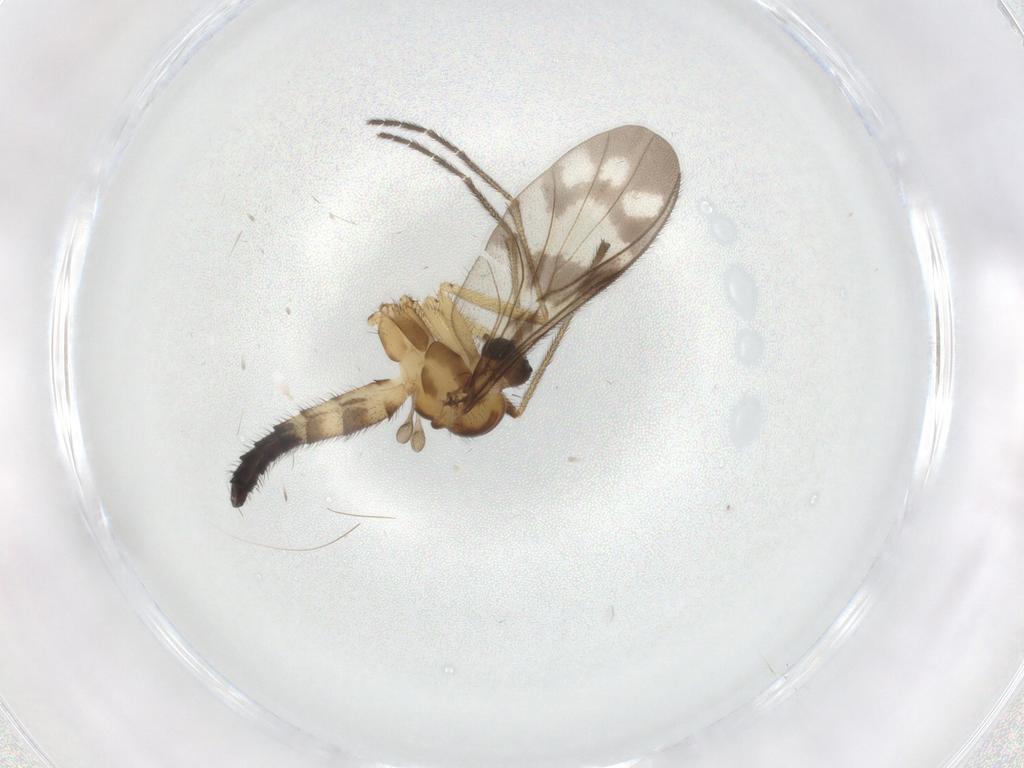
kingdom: Animalia
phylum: Arthropoda
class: Insecta
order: Diptera
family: Keroplatidae
